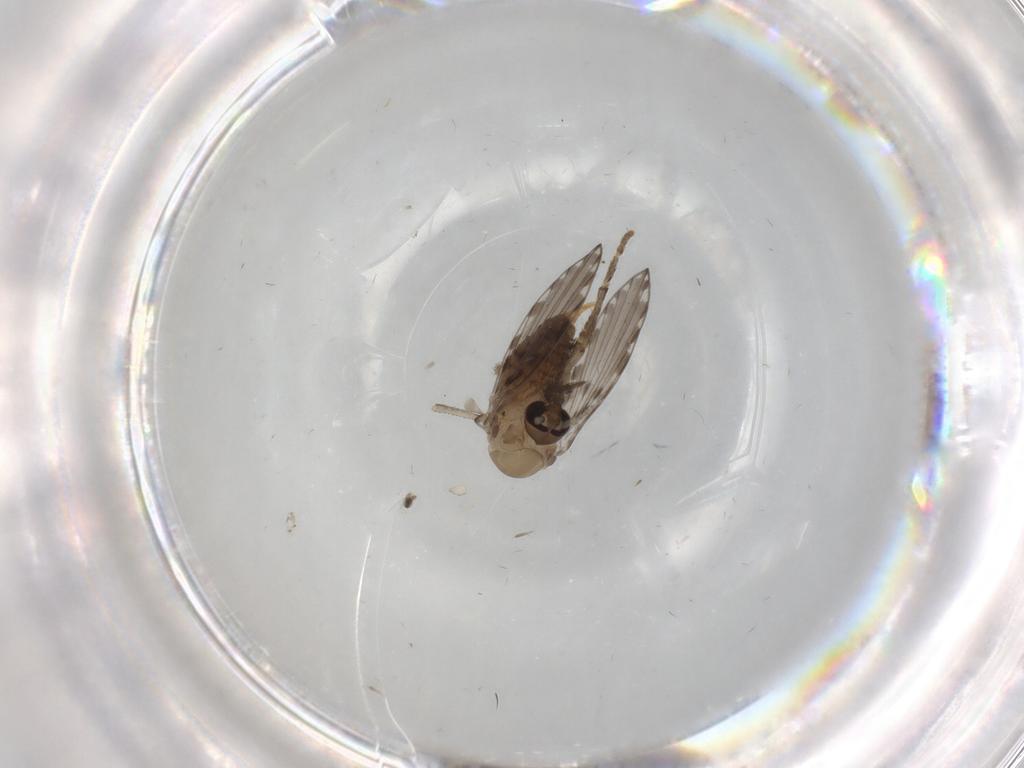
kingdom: Animalia
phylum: Arthropoda
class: Insecta
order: Diptera
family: Psychodidae
